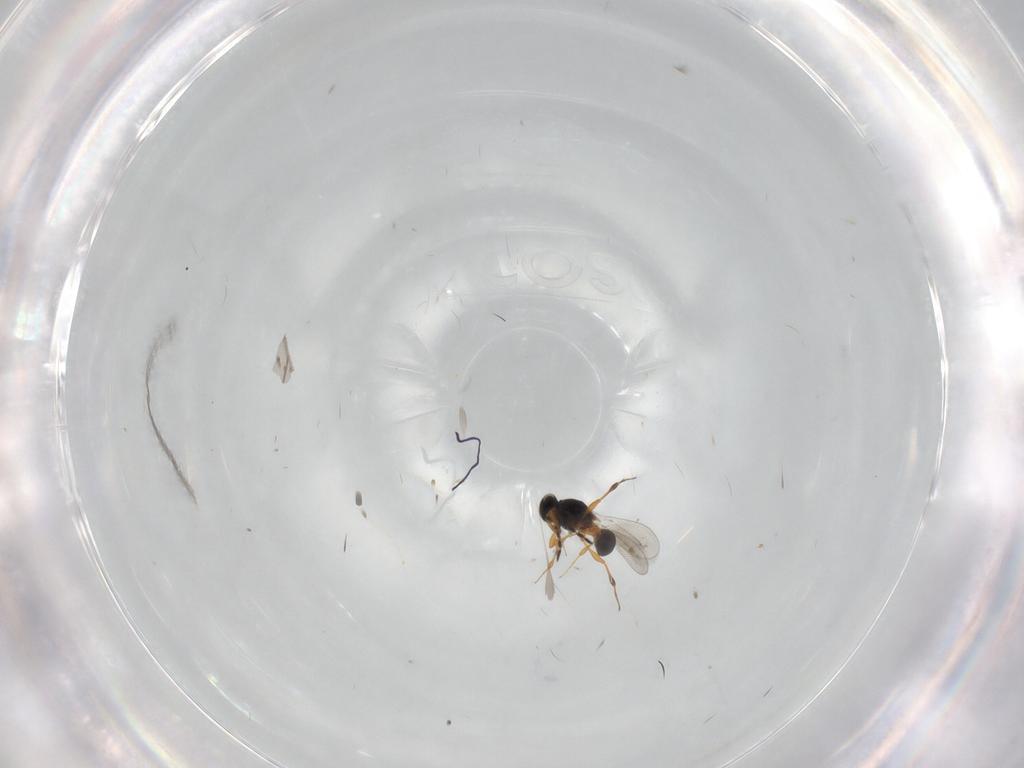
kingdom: Animalia
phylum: Arthropoda
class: Insecta
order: Hymenoptera
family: Platygastridae
